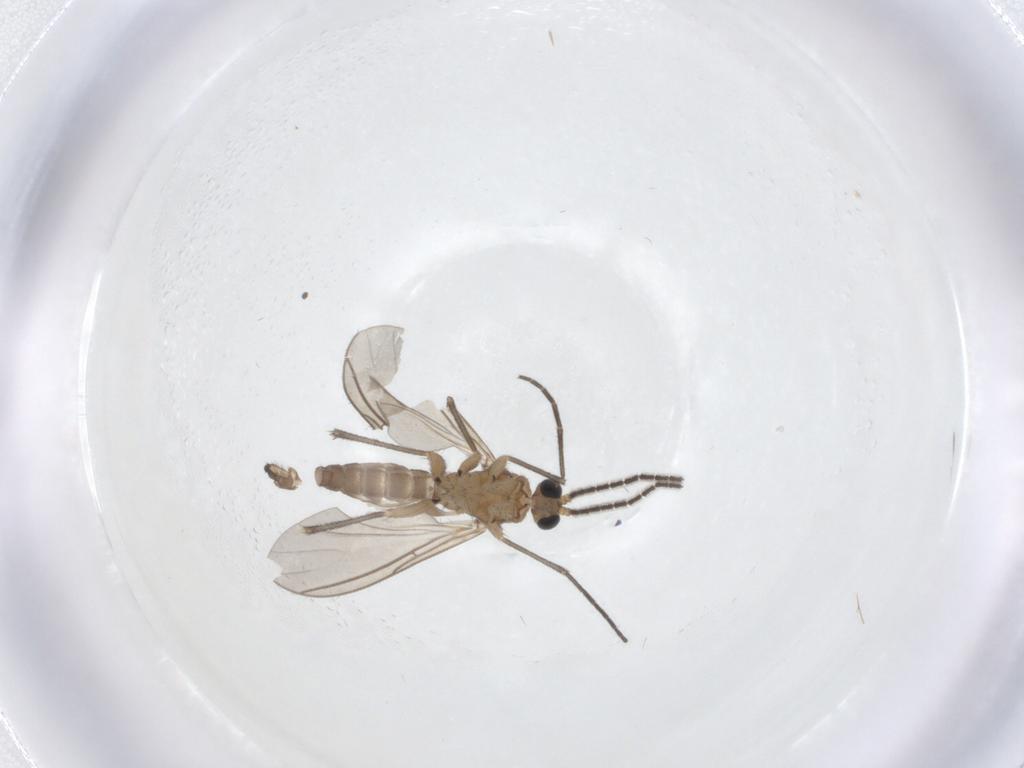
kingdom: Animalia
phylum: Arthropoda
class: Insecta
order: Diptera
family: Sciaridae
